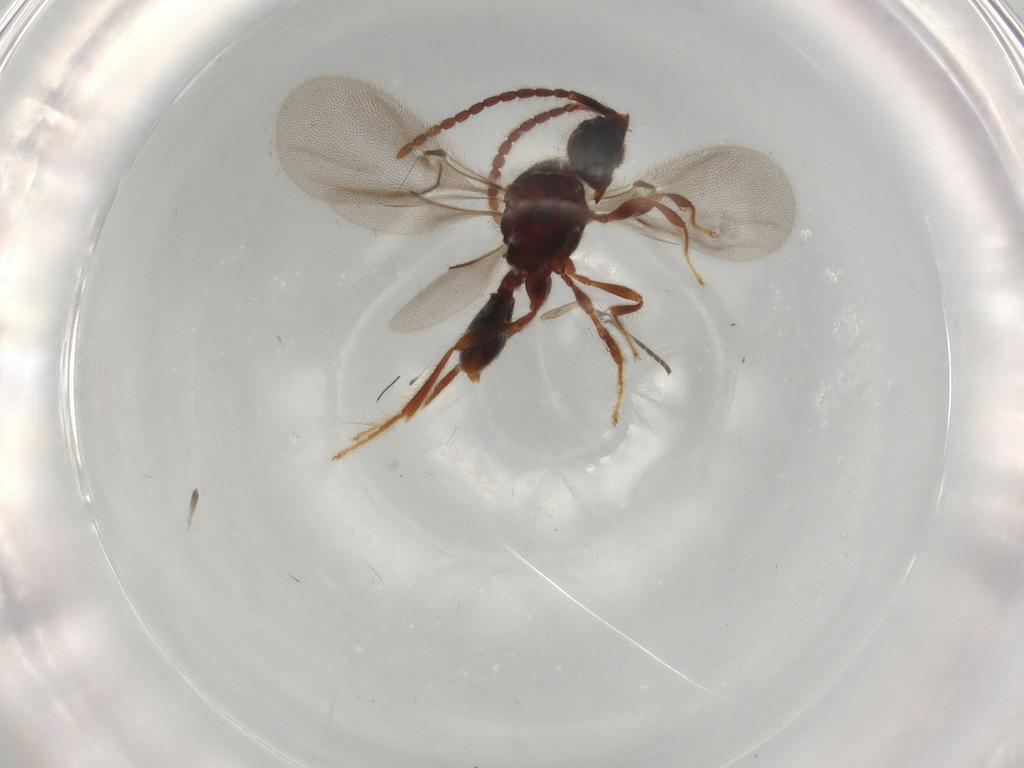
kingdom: Animalia
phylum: Arthropoda
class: Insecta
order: Hymenoptera
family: Diapriidae
